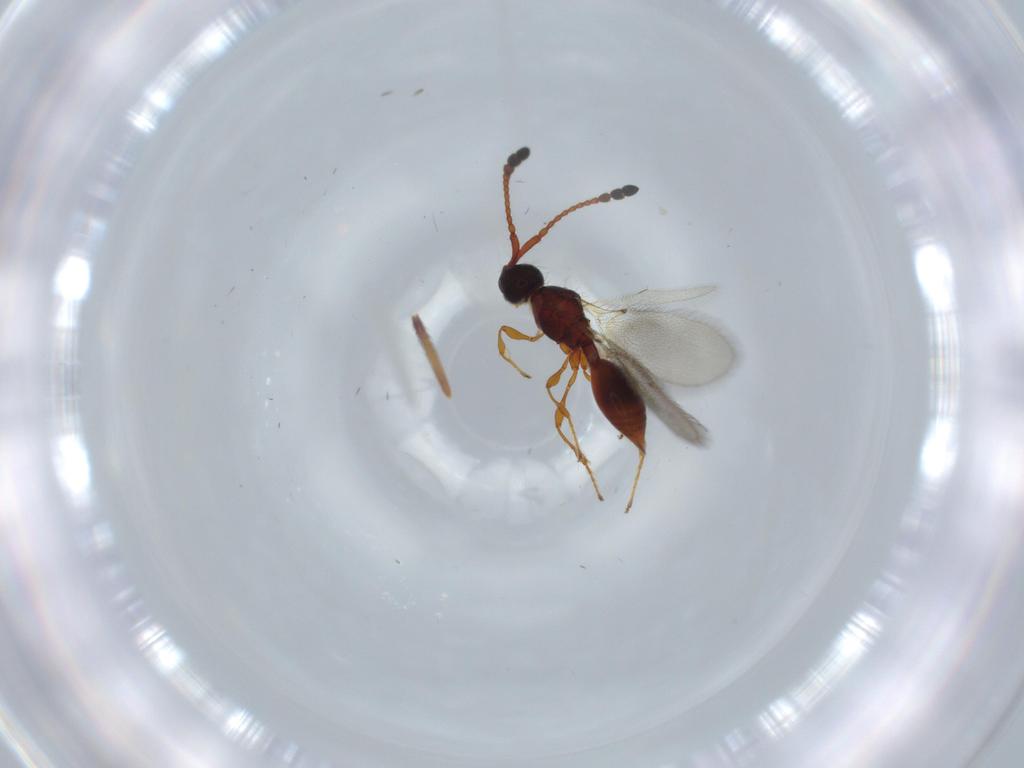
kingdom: Animalia
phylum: Arthropoda
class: Insecta
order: Hymenoptera
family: Diapriidae
